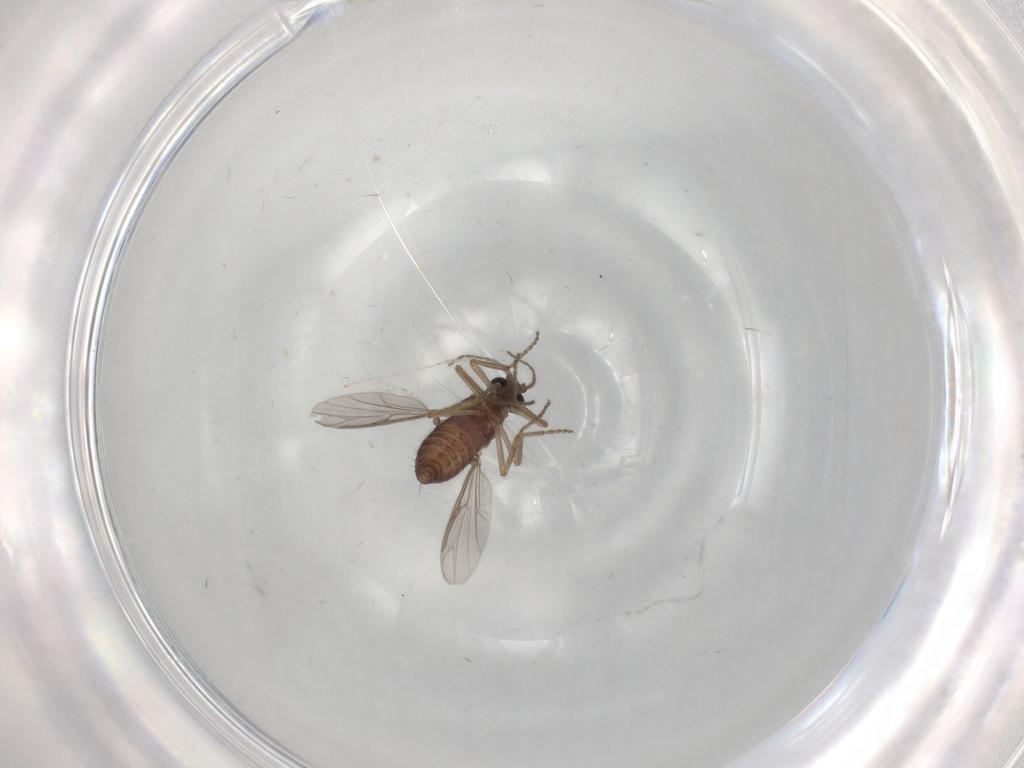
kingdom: Animalia
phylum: Arthropoda
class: Insecta
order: Diptera
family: Ceratopogonidae
